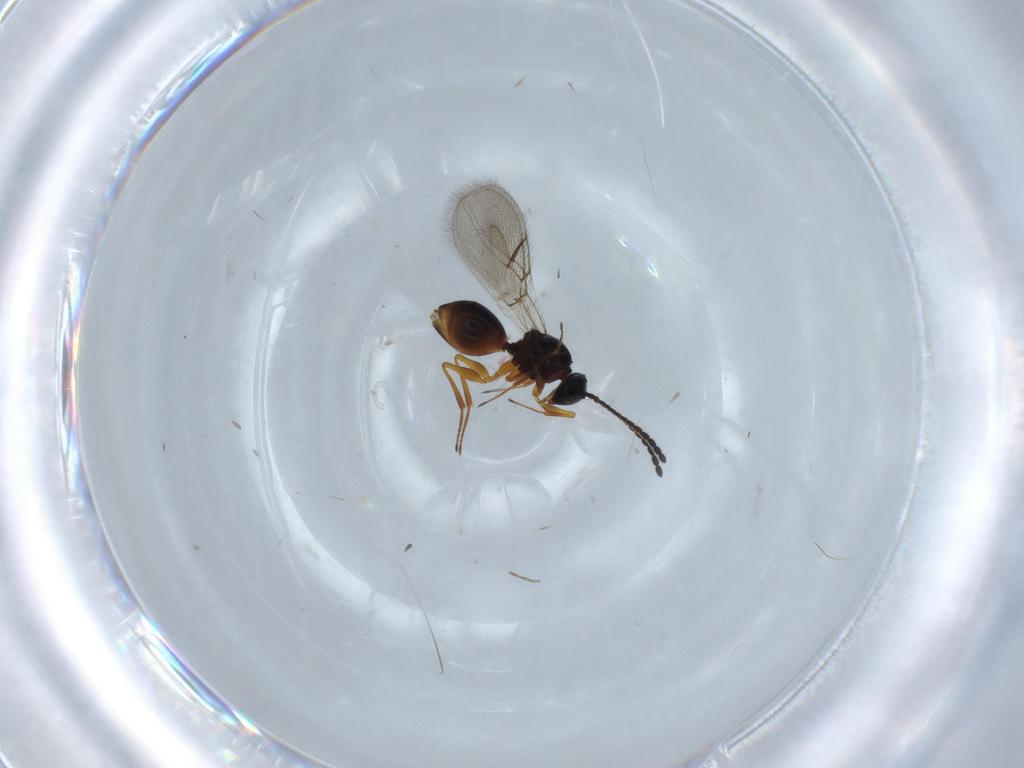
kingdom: Animalia
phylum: Arthropoda
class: Insecta
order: Hymenoptera
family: Figitidae
